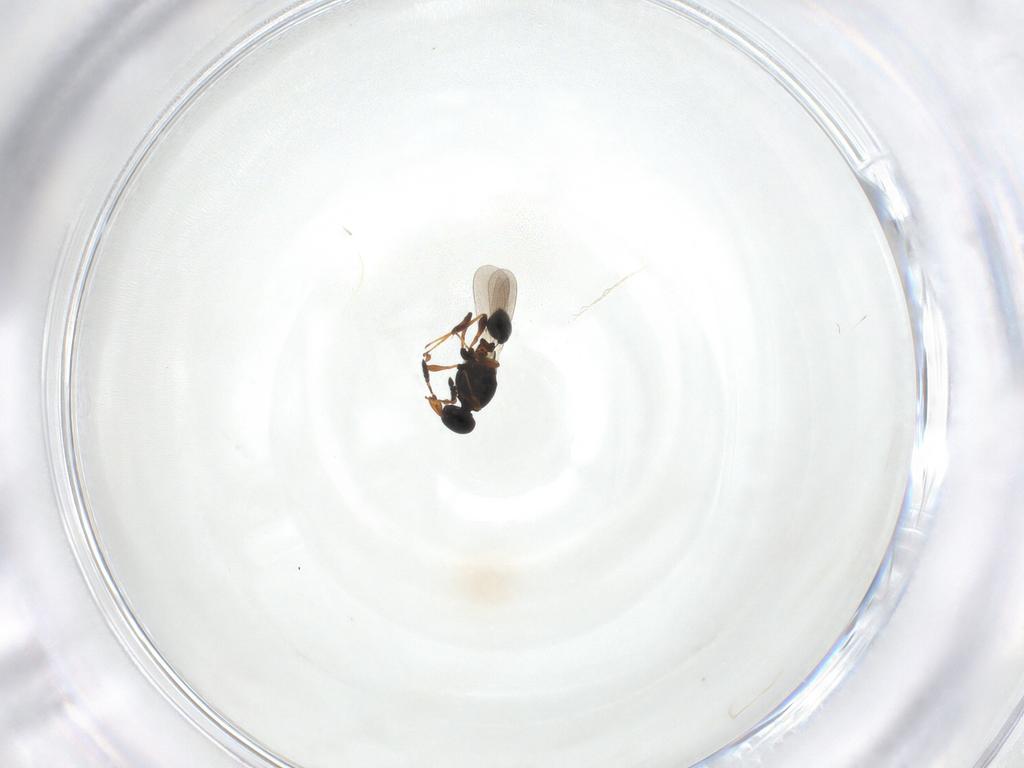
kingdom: Animalia
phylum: Arthropoda
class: Insecta
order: Hymenoptera
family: Platygastridae
